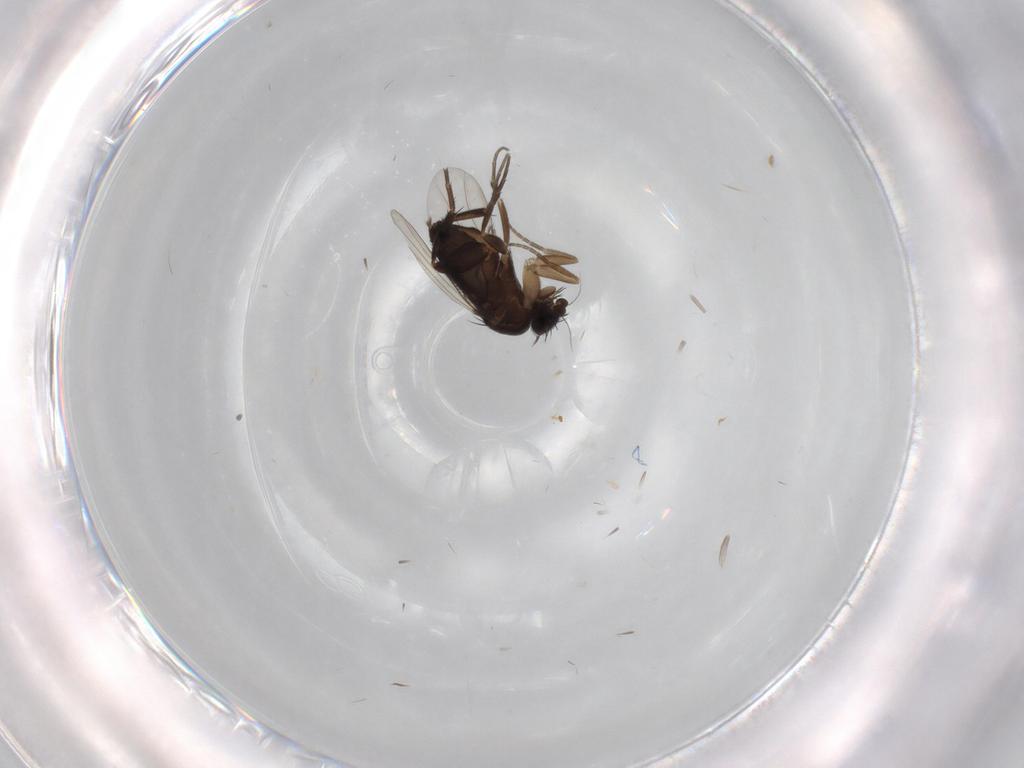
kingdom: Animalia
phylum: Arthropoda
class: Insecta
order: Diptera
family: Phoridae
